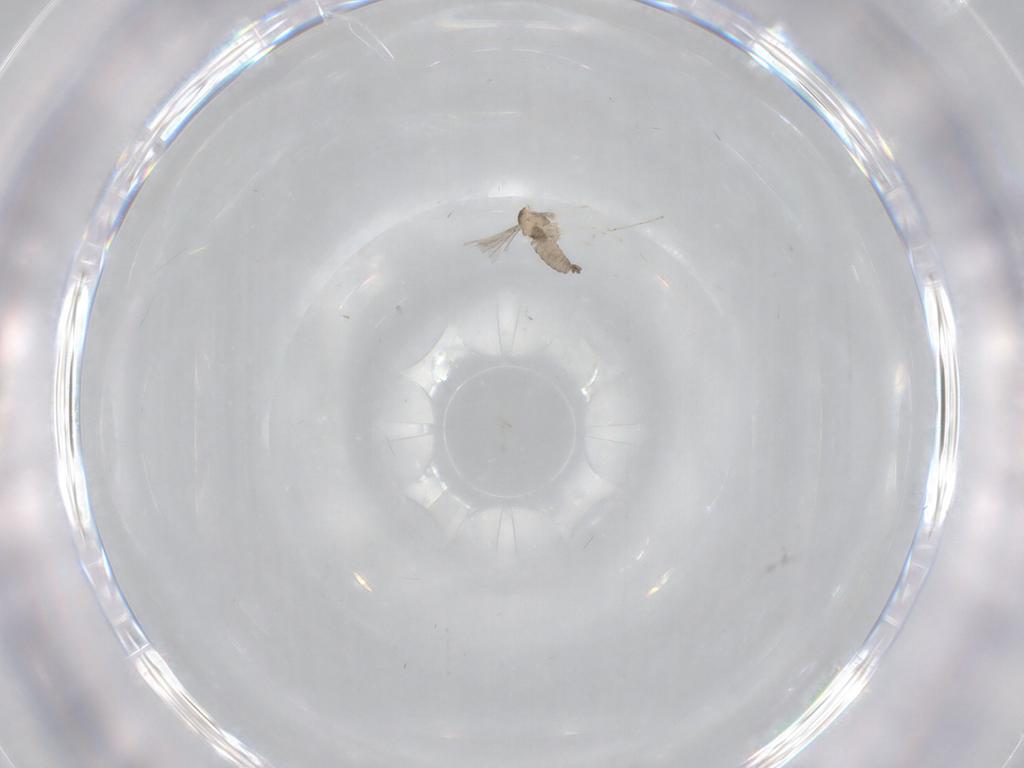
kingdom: Animalia
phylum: Arthropoda
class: Insecta
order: Diptera
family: Cecidomyiidae
